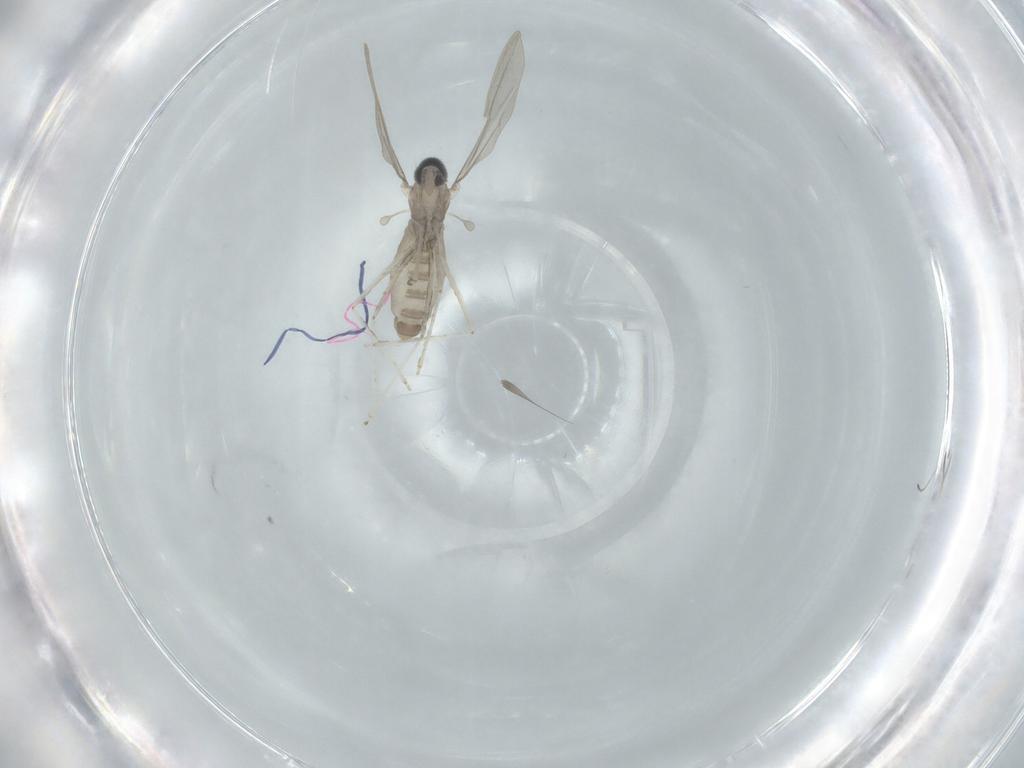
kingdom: Animalia
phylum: Arthropoda
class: Insecta
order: Diptera
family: Cecidomyiidae
